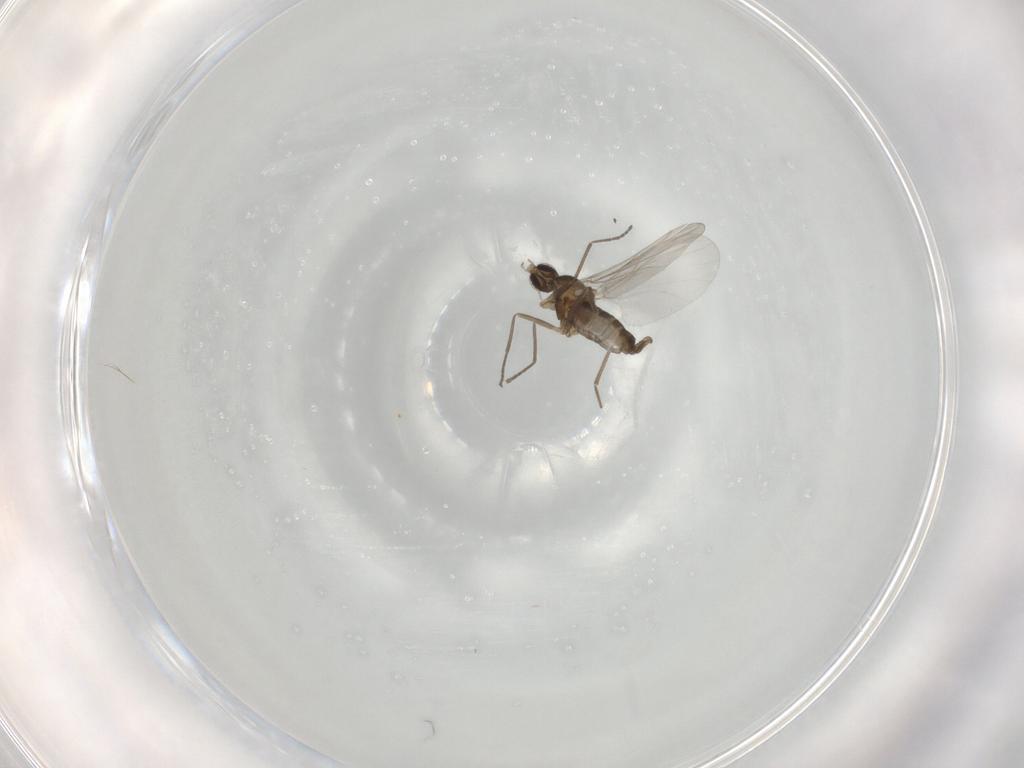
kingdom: Animalia
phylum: Arthropoda
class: Insecta
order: Diptera
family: Cecidomyiidae
